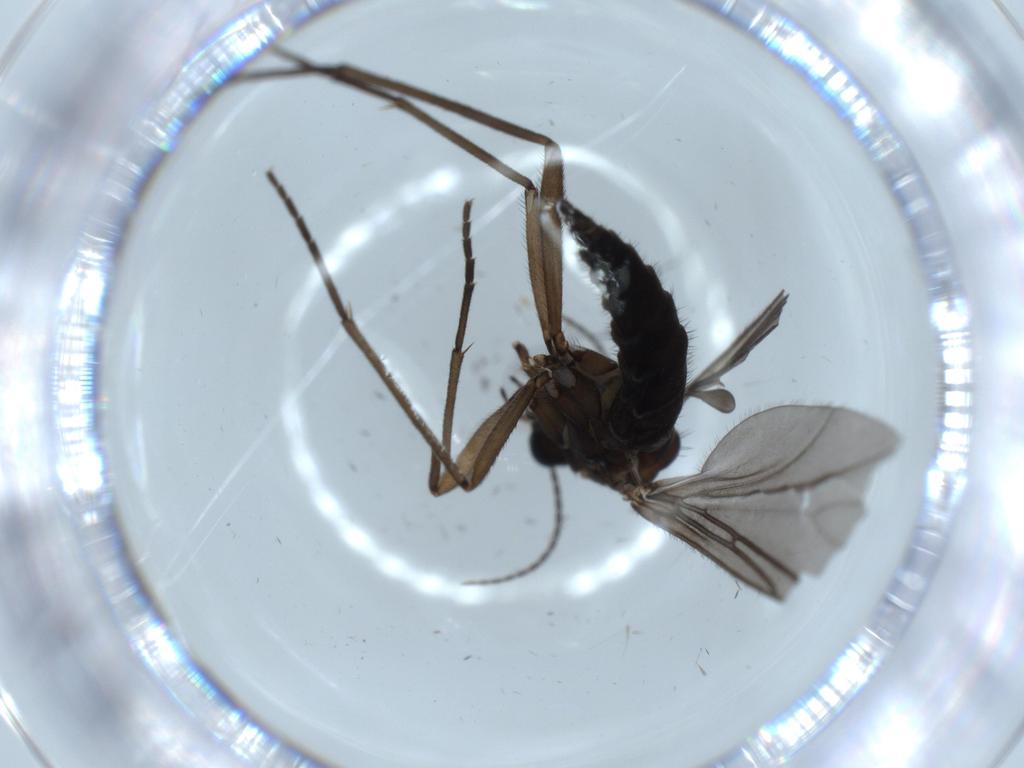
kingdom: Animalia
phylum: Arthropoda
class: Insecta
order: Diptera
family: Sciaridae
